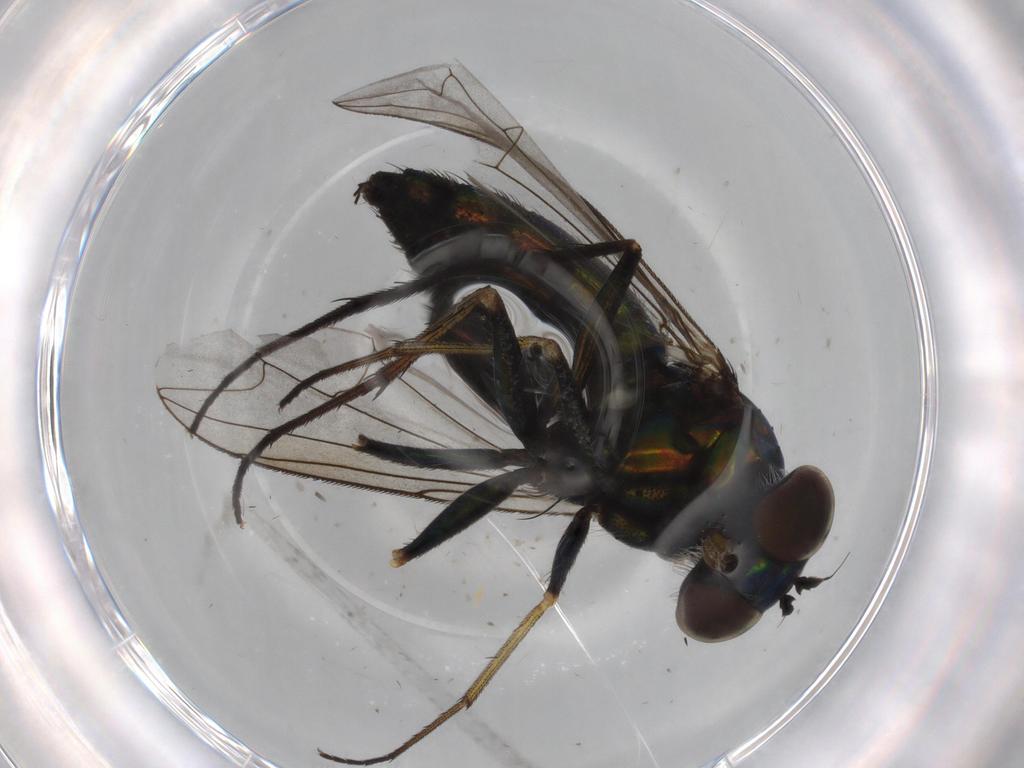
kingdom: Animalia
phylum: Arthropoda
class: Insecta
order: Diptera
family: Dolichopodidae
